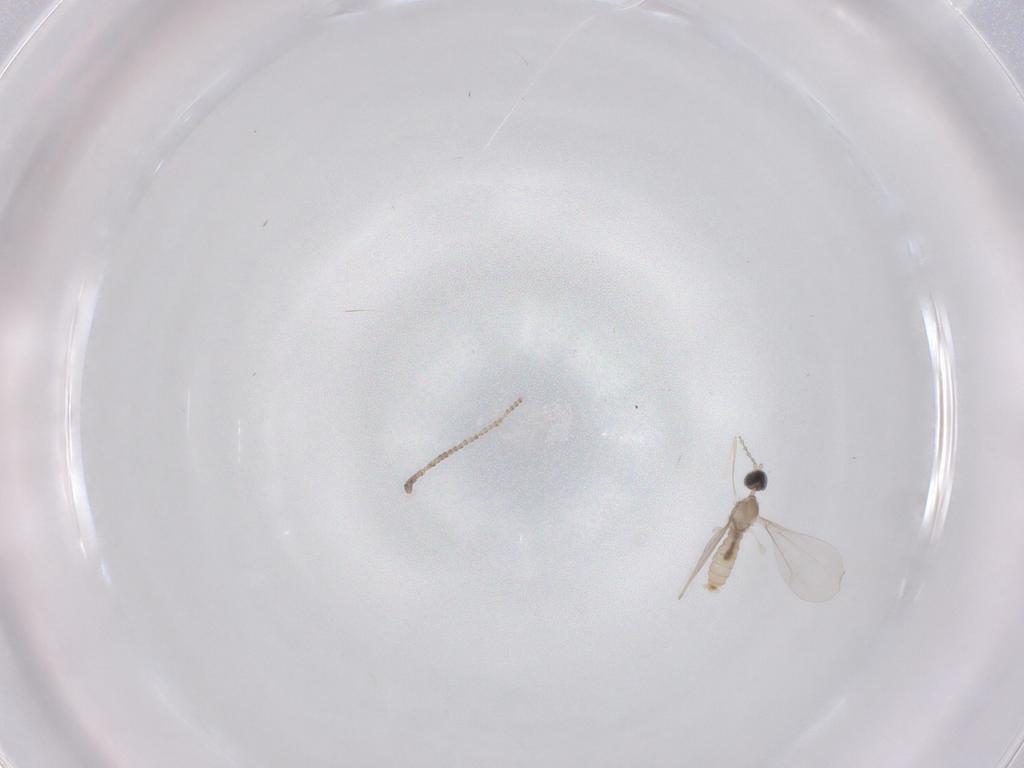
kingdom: Animalia
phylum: Arthropoda
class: Insecta
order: Diptera
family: Cecidomyiidae
